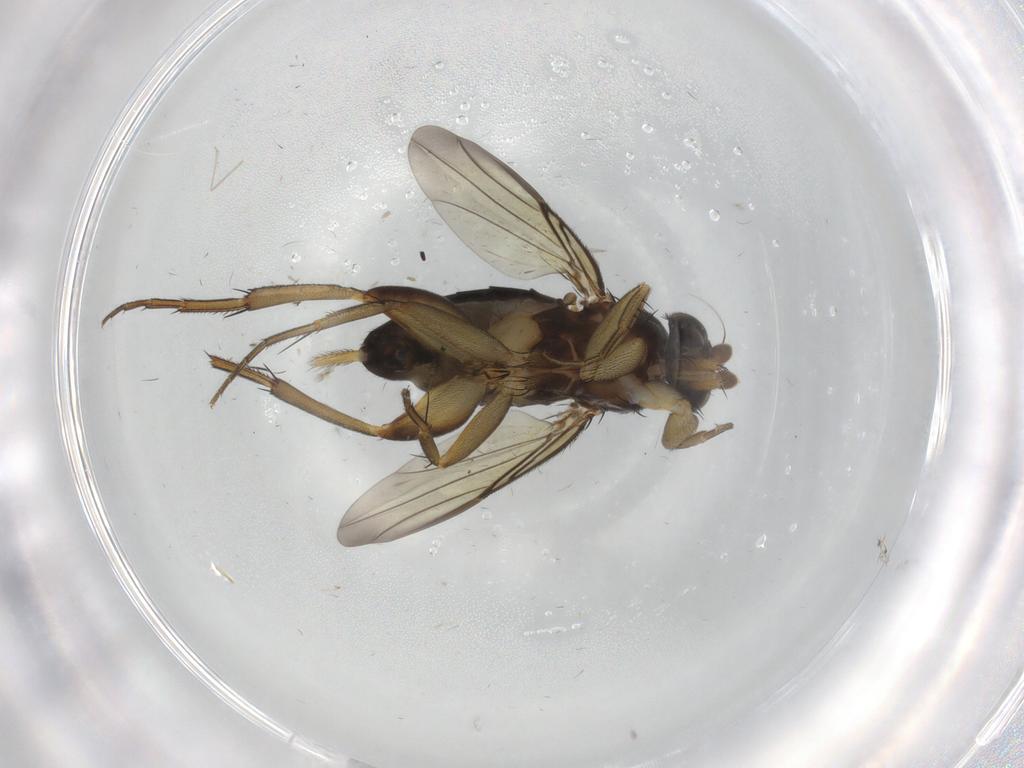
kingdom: Animalia
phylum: Arthropoda
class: Insecta
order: Diptera
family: Phoridae
